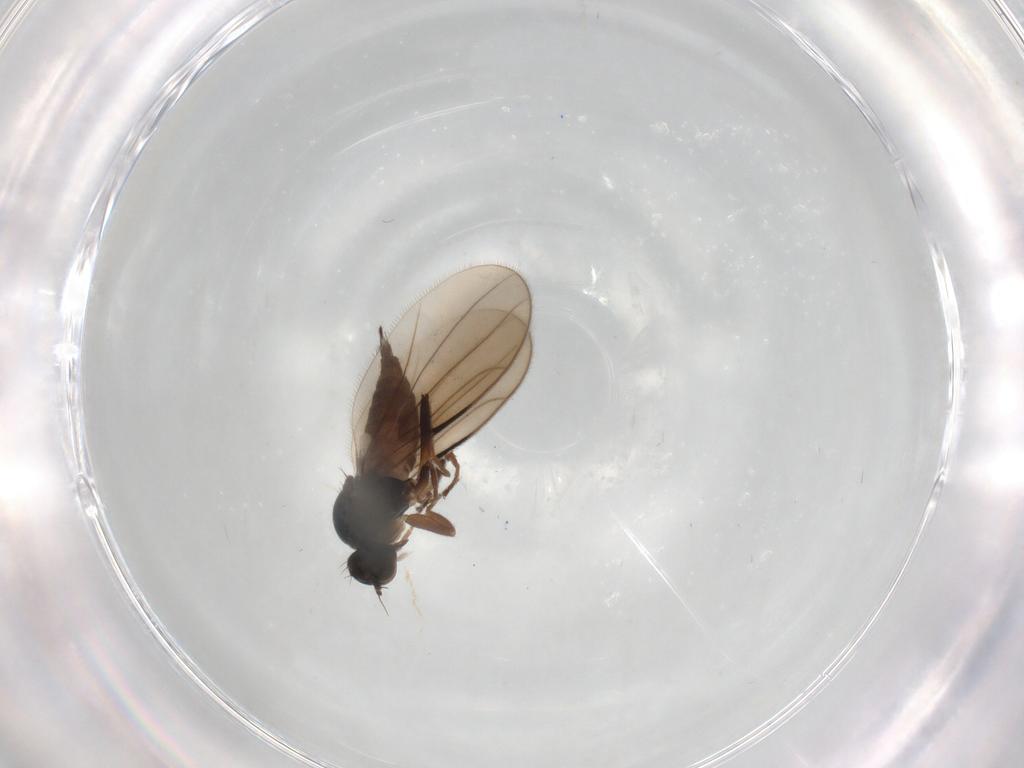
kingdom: Animalia
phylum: Arthropoda
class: Insecta
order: Diptera
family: Hybotidae
